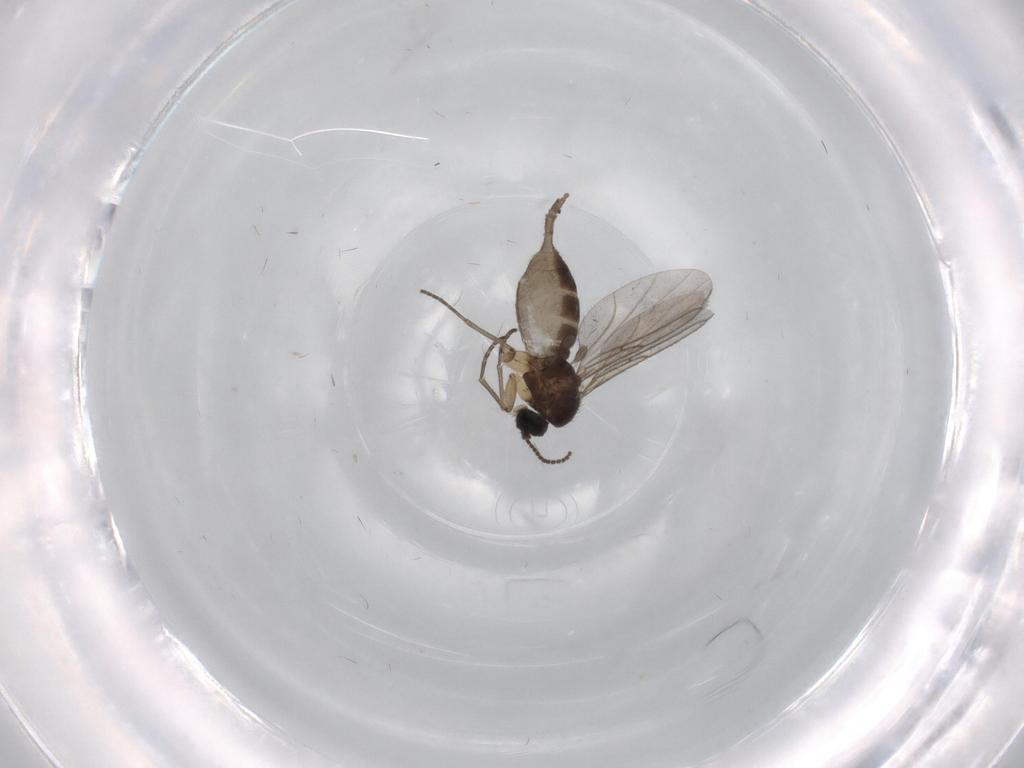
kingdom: Animalia
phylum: Arthropoda
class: Insecta
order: Diptera
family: Sciaridae
